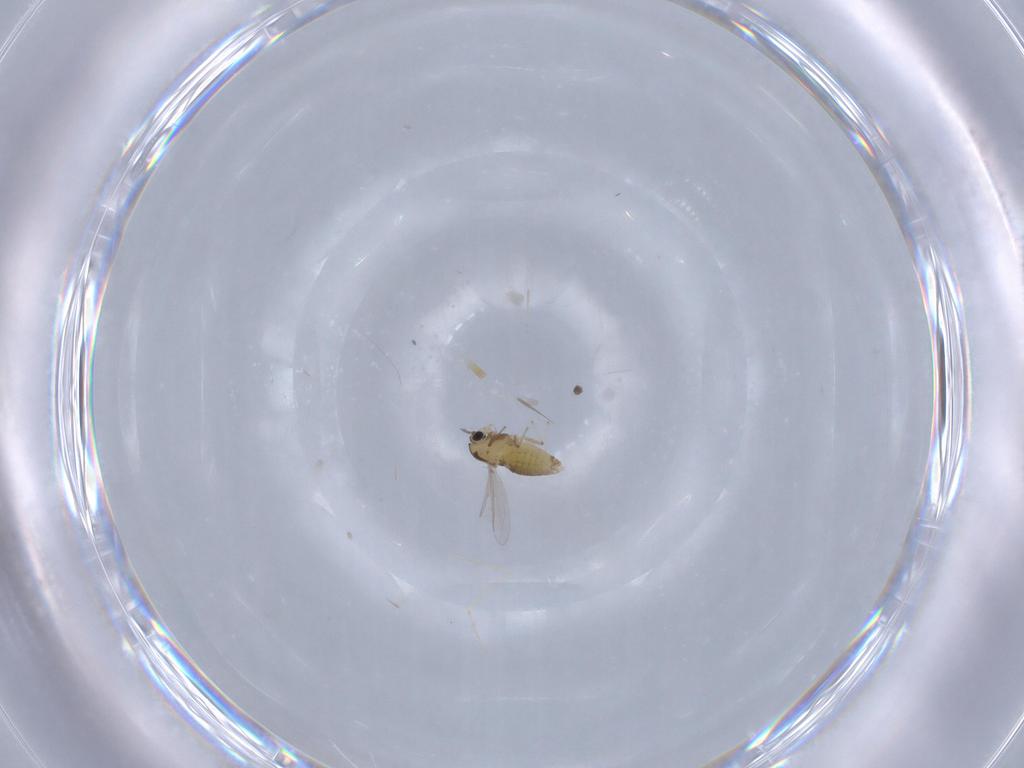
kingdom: Animalia
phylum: Arthropoda
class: Insecta
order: Diptera
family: Chironomidae
